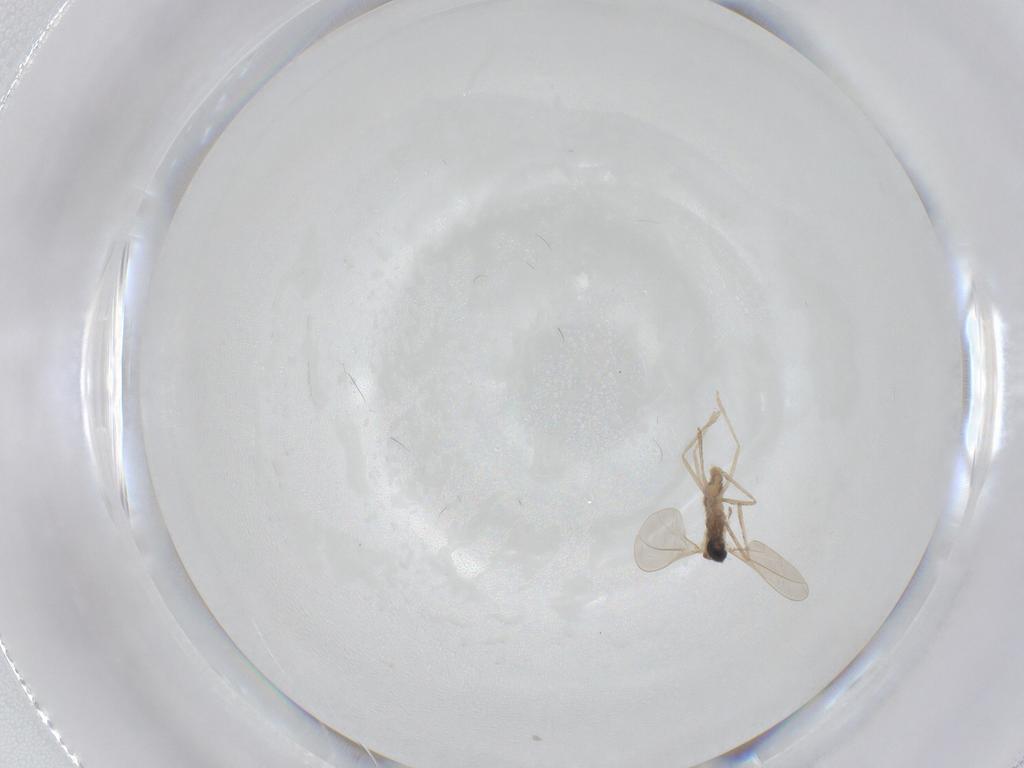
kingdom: Animalia
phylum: Arthropoda
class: Insecta
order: Diptera
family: Cecidomyiidae
